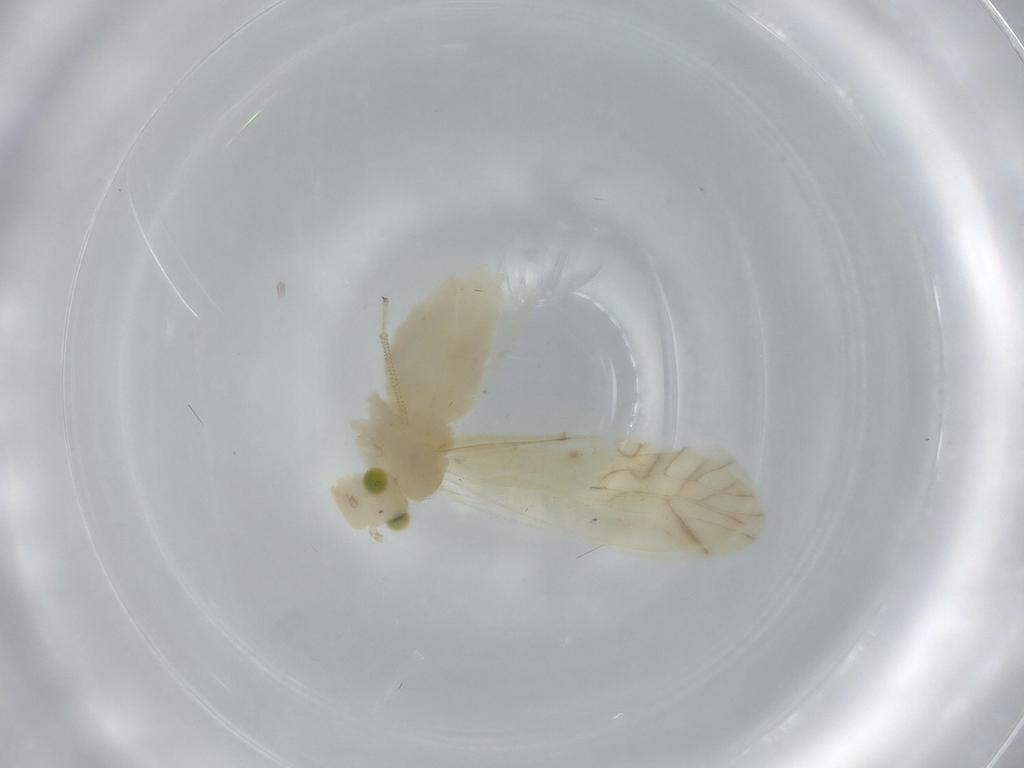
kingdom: Animalia
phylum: Arthropoda
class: Insecta
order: Psocodea
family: Caeciliusidae
